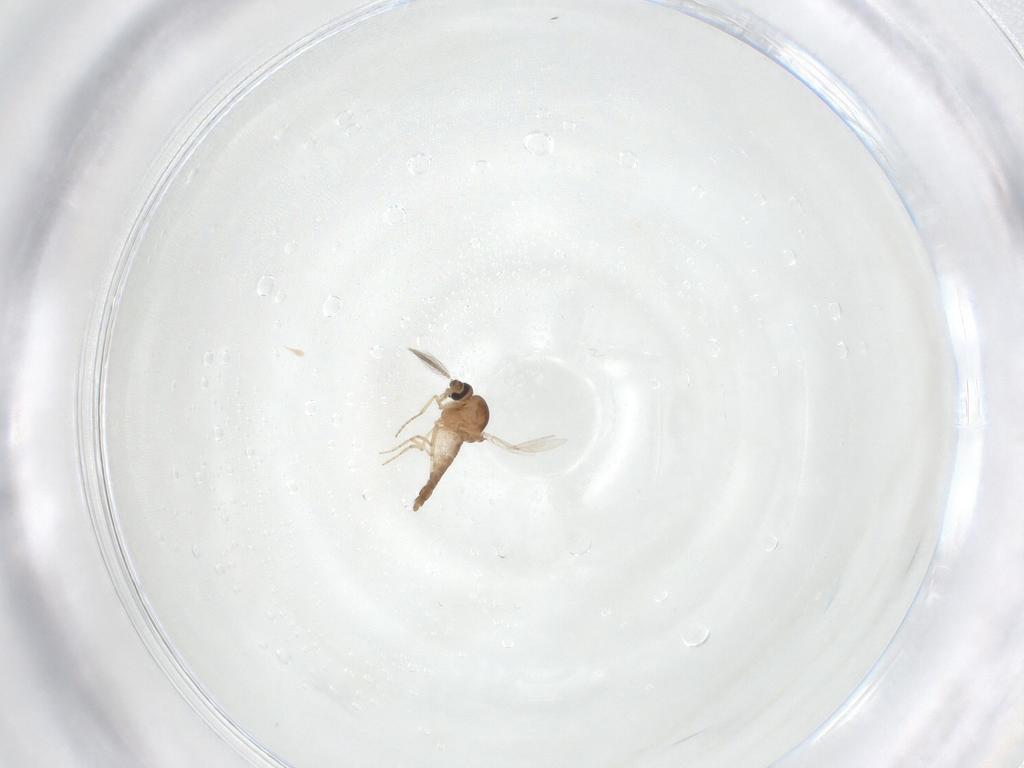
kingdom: Animalia
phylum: Arthropoda
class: Insecta
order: Diptera
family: Ceratopogonidae
